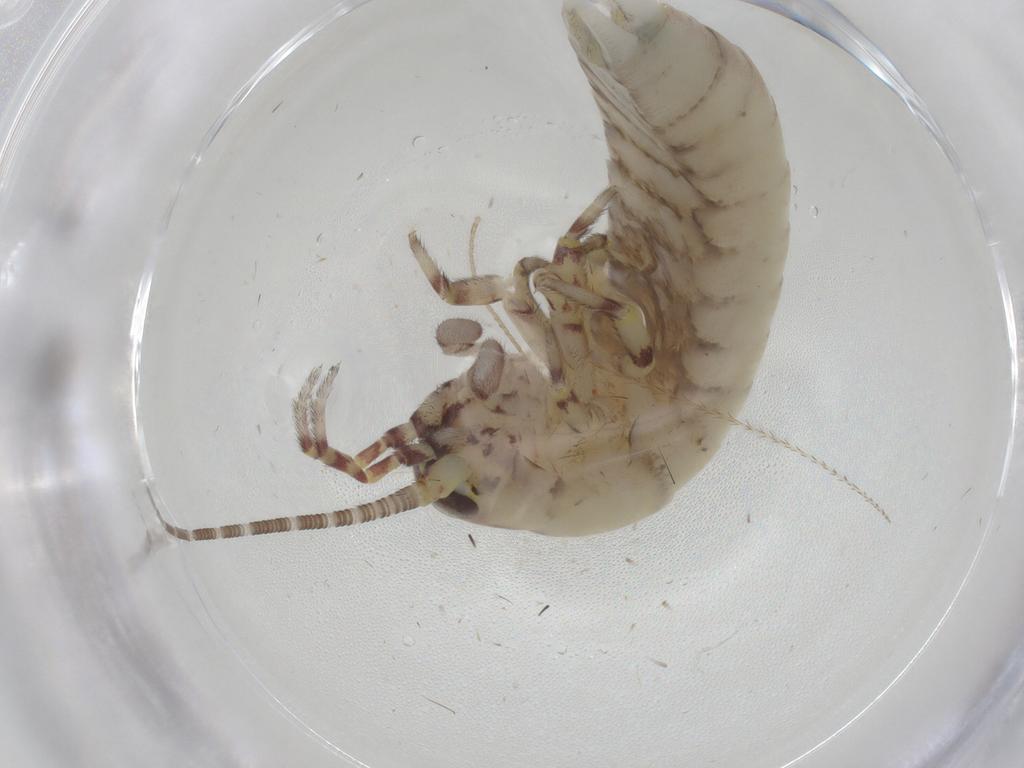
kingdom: Animalia
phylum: Arthropoda
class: Insecta
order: Archaeognatha
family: Meinertellidae
